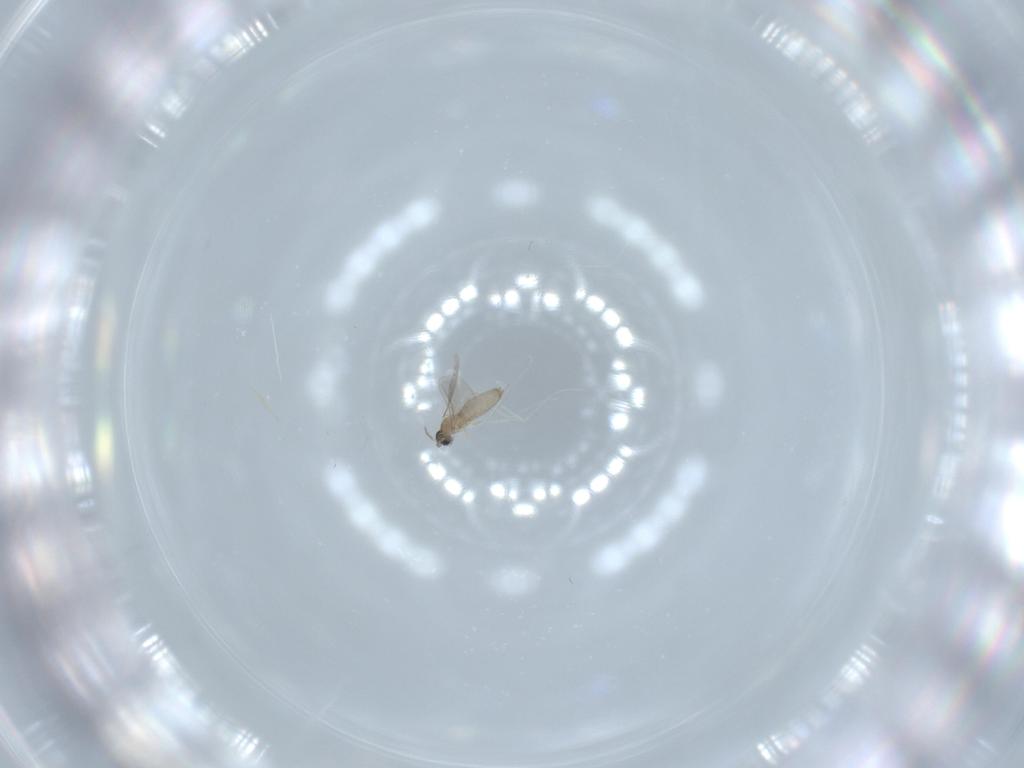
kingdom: Animalia
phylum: Arthropoda
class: Insecta
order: Diptera
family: Cecidomyiidae
